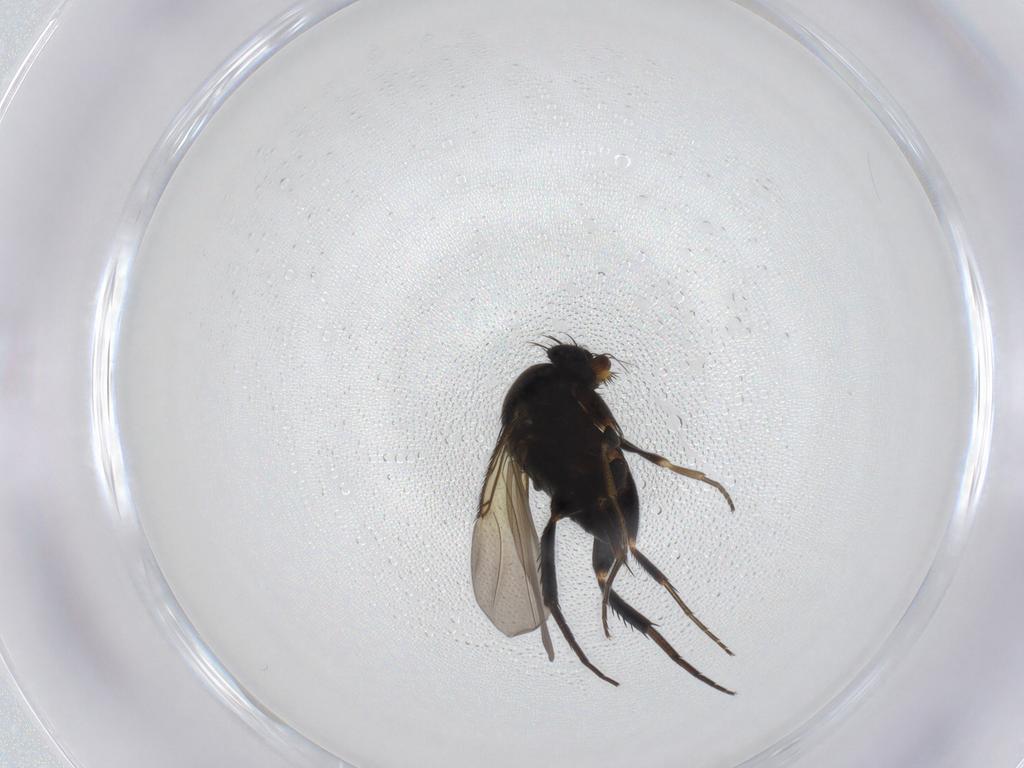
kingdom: Animalia
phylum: Arthropoda
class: Insecta
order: Diptera
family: Phoridae
